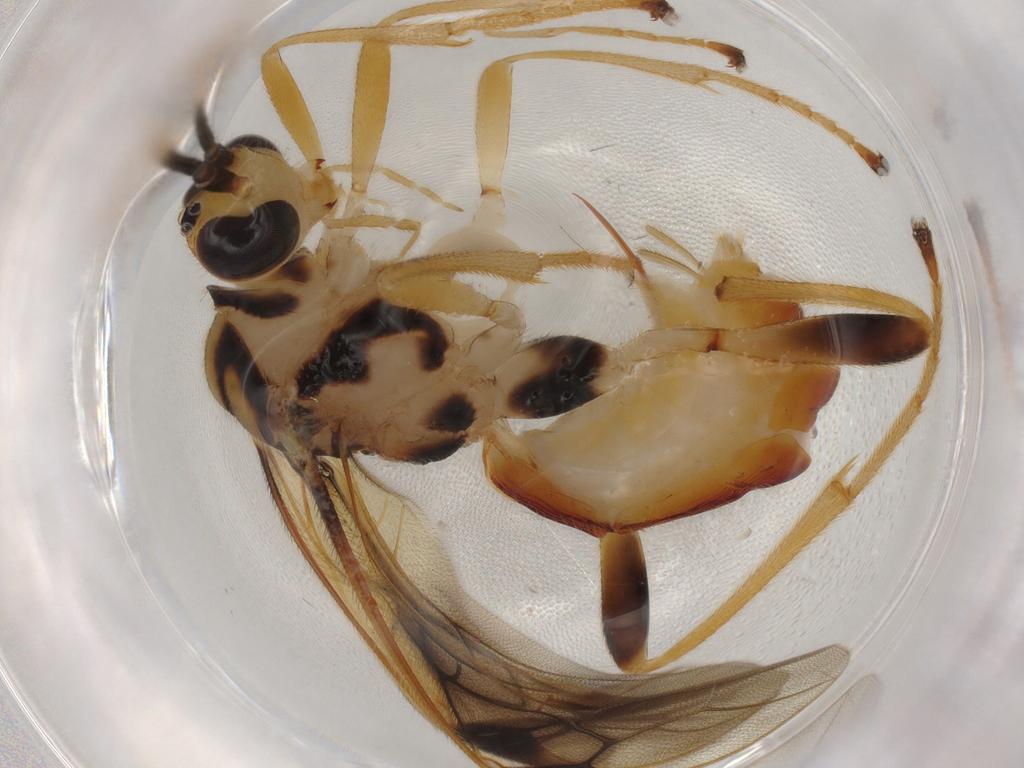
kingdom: Animalia
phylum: Arthropoda
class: Insecta
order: Hymenoptera
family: Platygastridae
